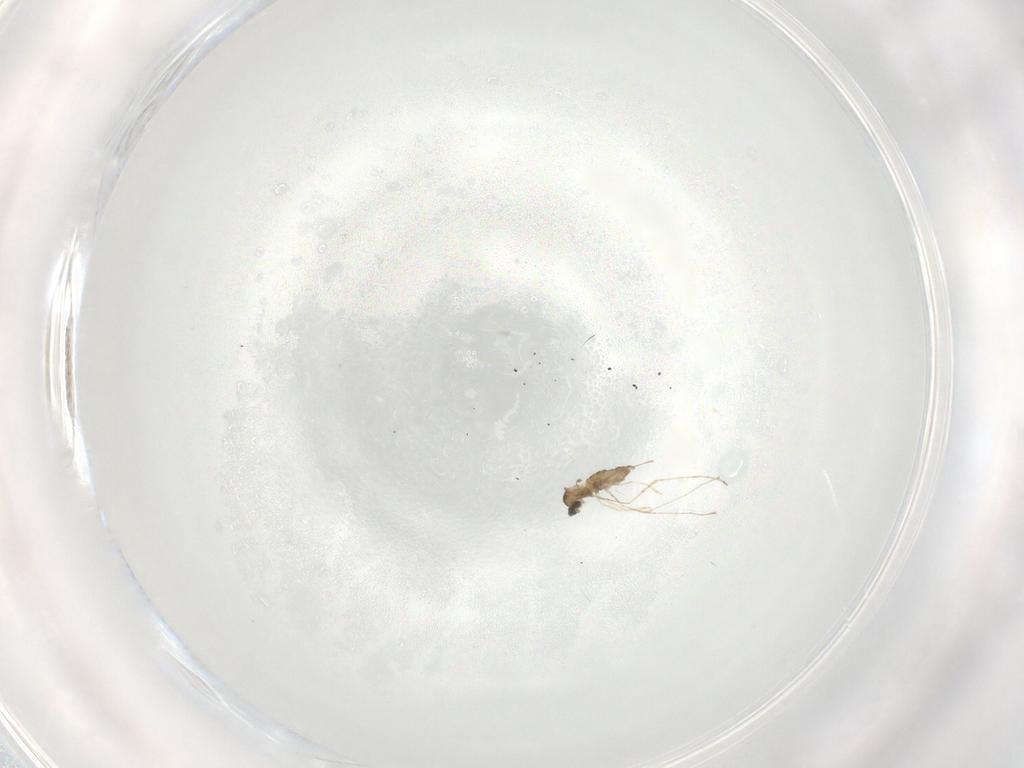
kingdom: Animalia
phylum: Arthropoda
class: Insecta
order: Diptera
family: Cecidomyiidae
